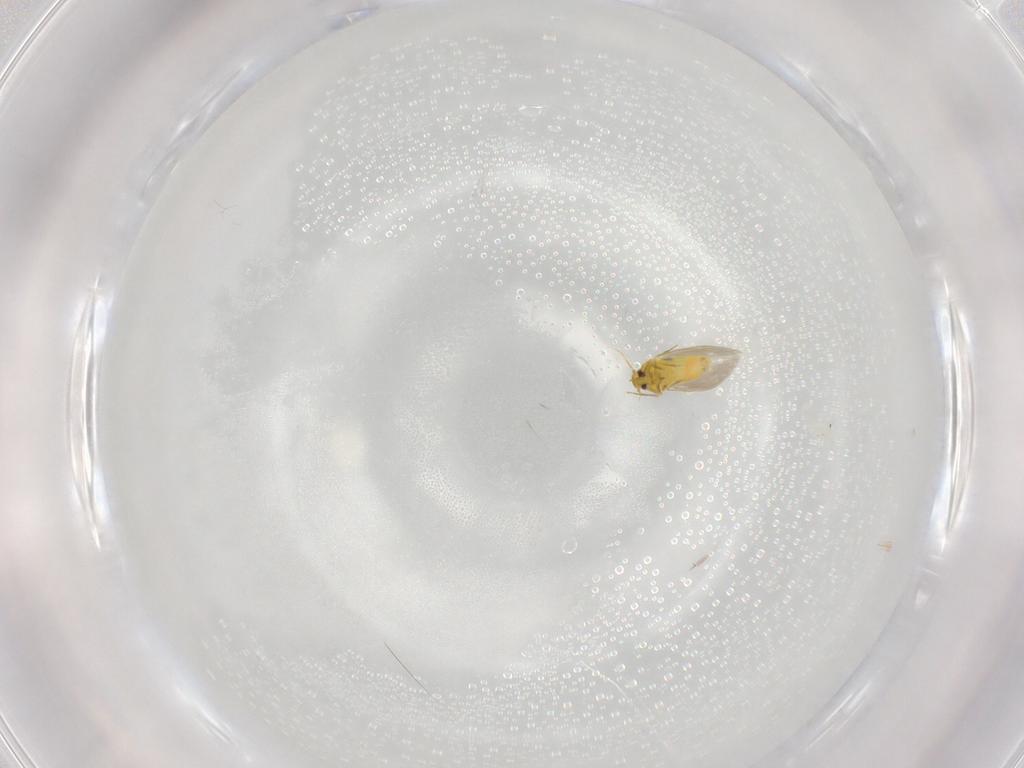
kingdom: Animalia
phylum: Arthropoda
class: Insecta
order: Hemiptera
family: Aleyrodidae
